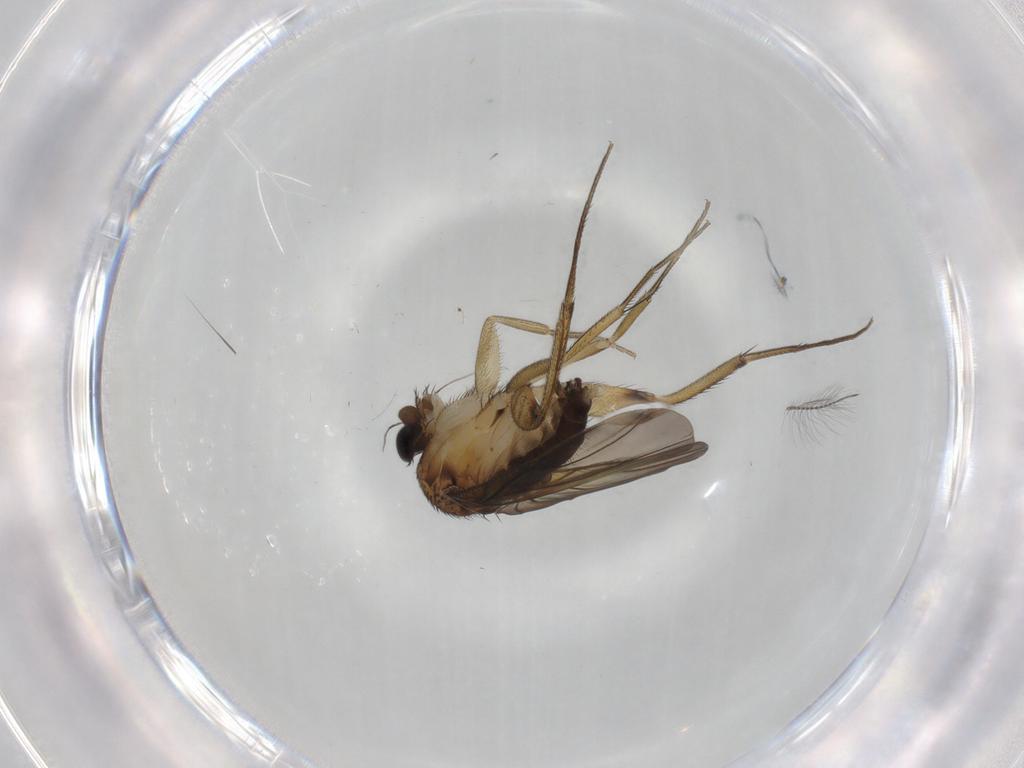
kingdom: Animalia
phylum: Arthropoda
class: Insecta
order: Diptera
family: Phoridae
